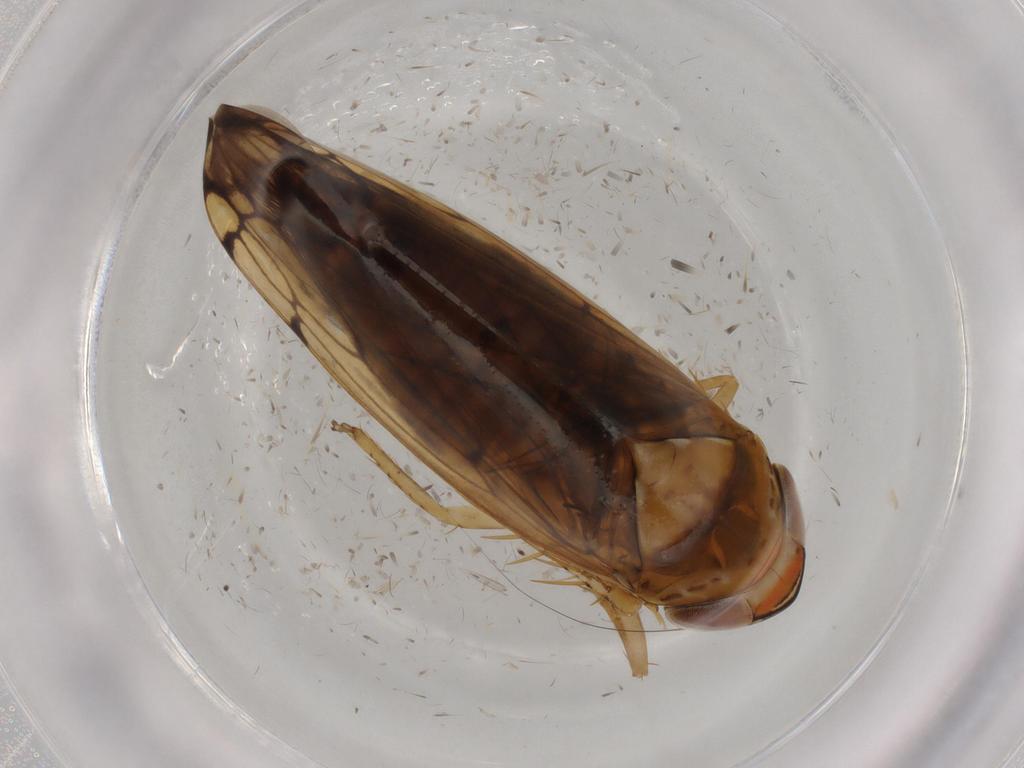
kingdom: Animalia
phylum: Arthropoda
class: Insecta
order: Hemiptera
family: Cicadellidae
